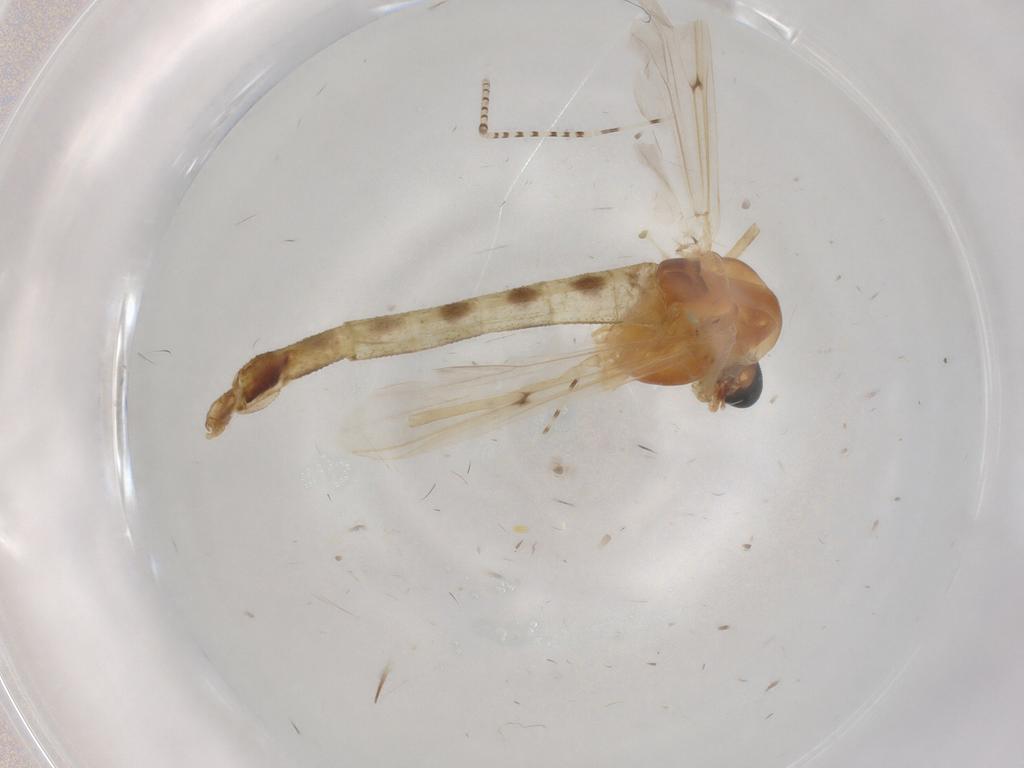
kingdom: Animalia
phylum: Arthropoda
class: Insecta
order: Diptera
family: Chironomidae
